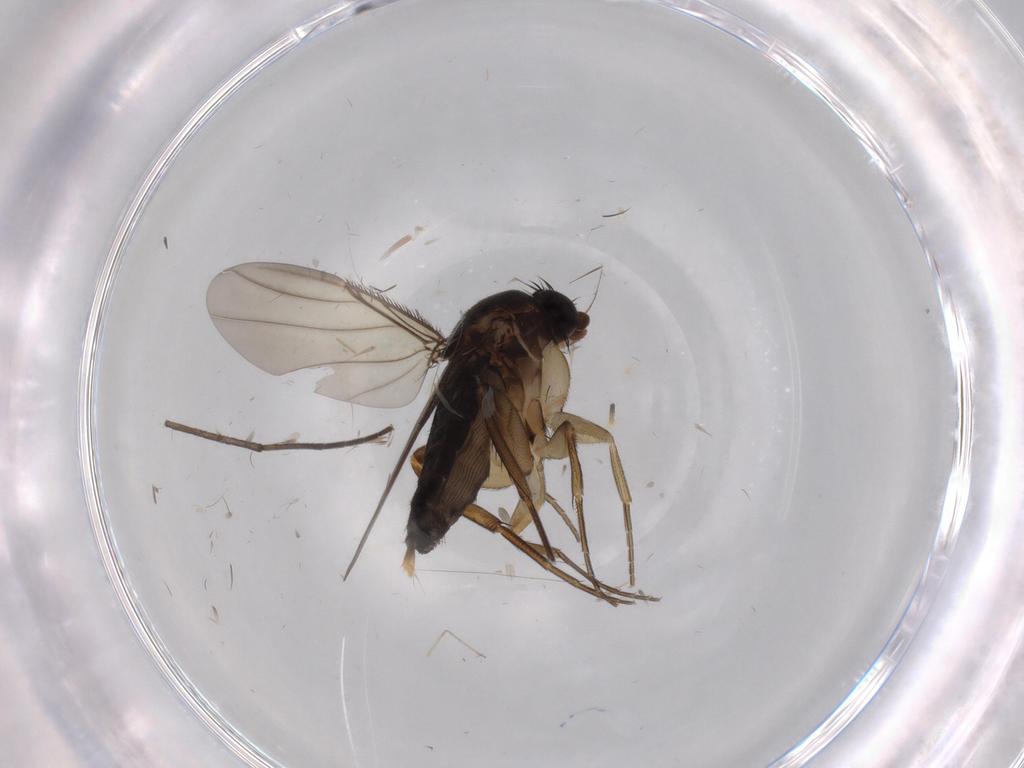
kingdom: Animalia
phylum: Arthropoda
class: Insecta
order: Diptera
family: Phoridae
